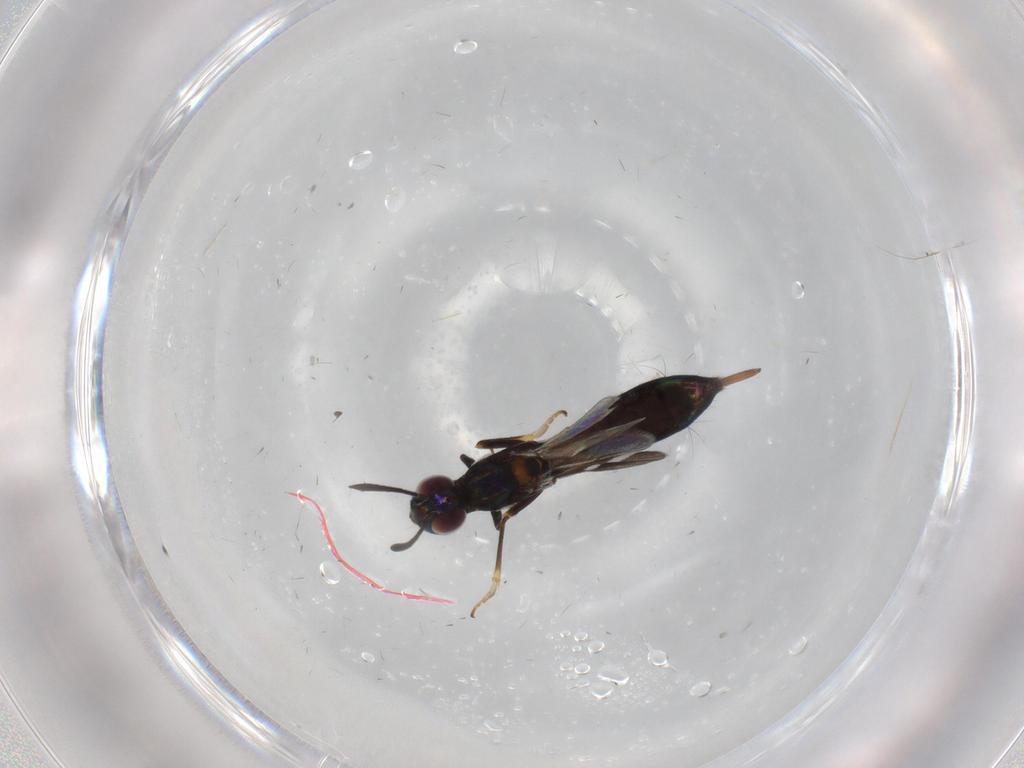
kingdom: Animalia
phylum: Arthropoda
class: Insecta
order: Hymenoptera
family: Eupelmidae
